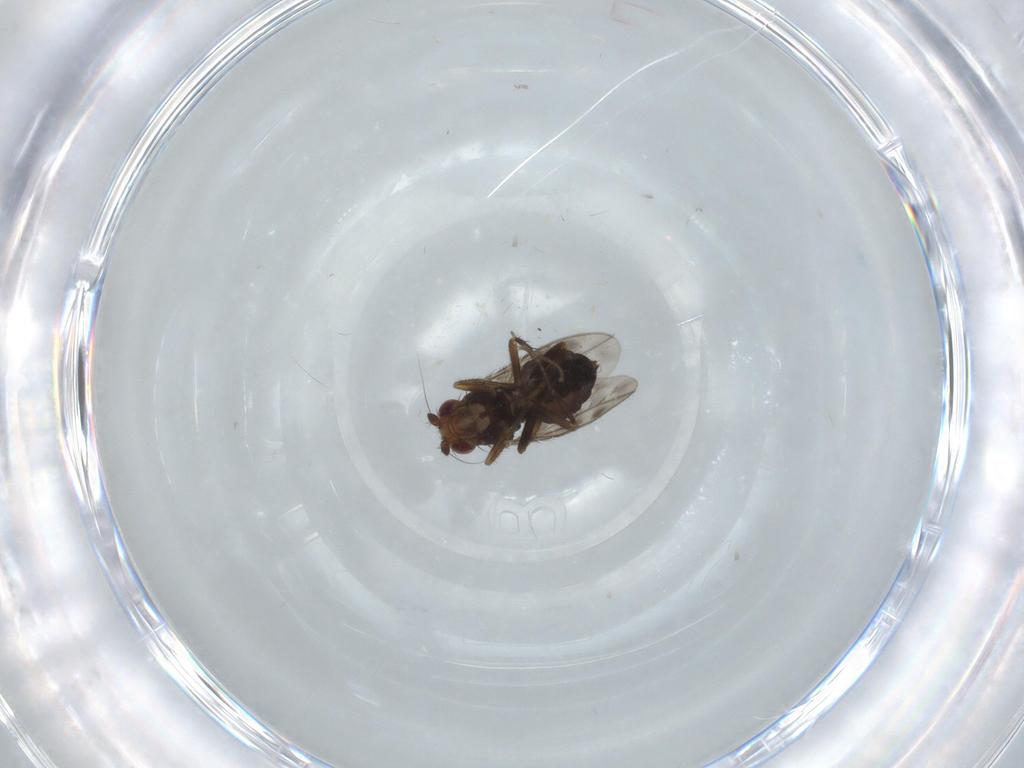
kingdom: Animalia
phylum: Arthropoda
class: Insecta
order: Diptera
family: Sphaeroceridae
